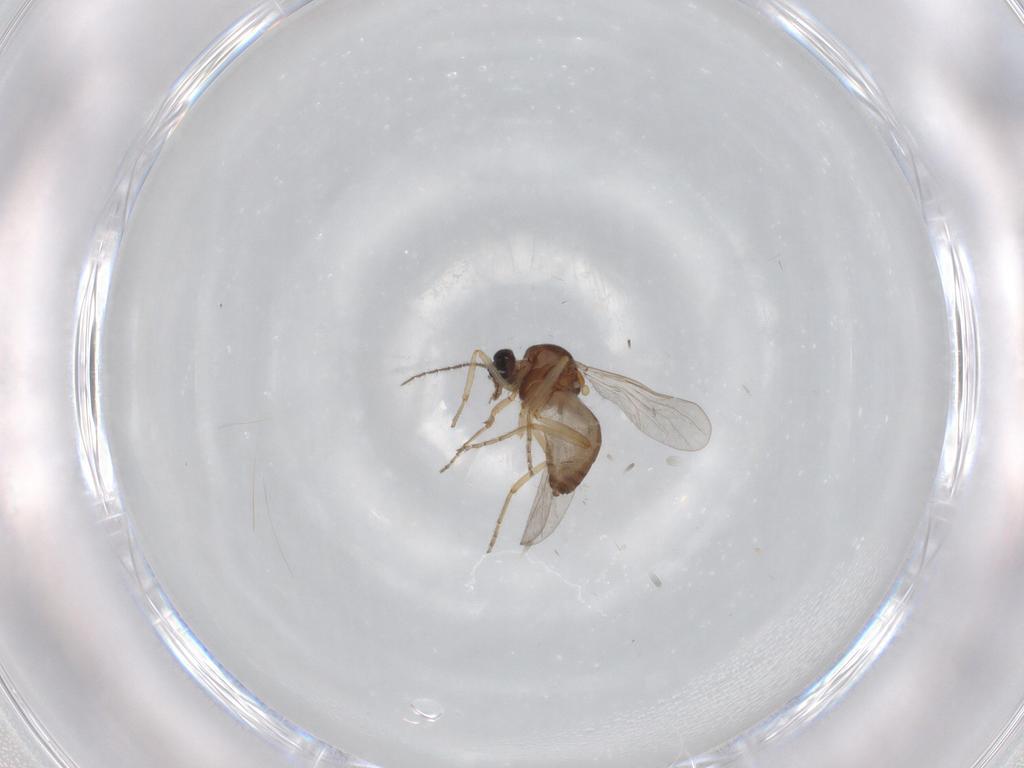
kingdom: Animalia
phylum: Arthropoda
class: Insecta
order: Diptera
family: Ceratopogonidae
